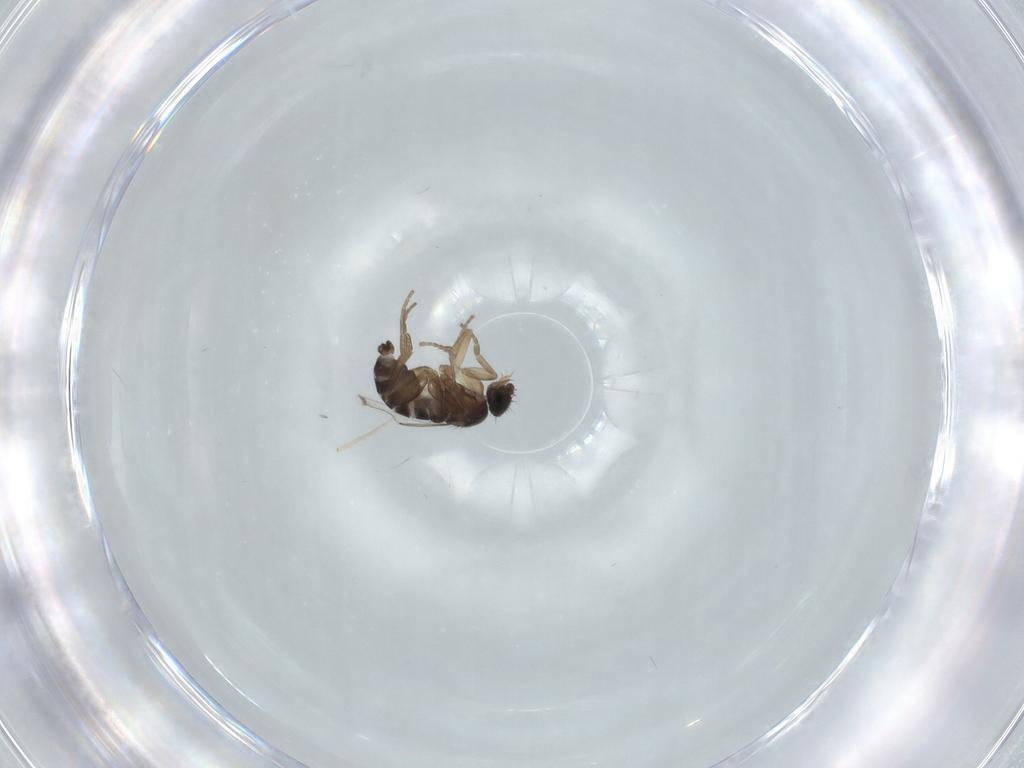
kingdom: Animalia
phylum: Arthropoda
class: Insecta
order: Diptera
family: Phoridae
